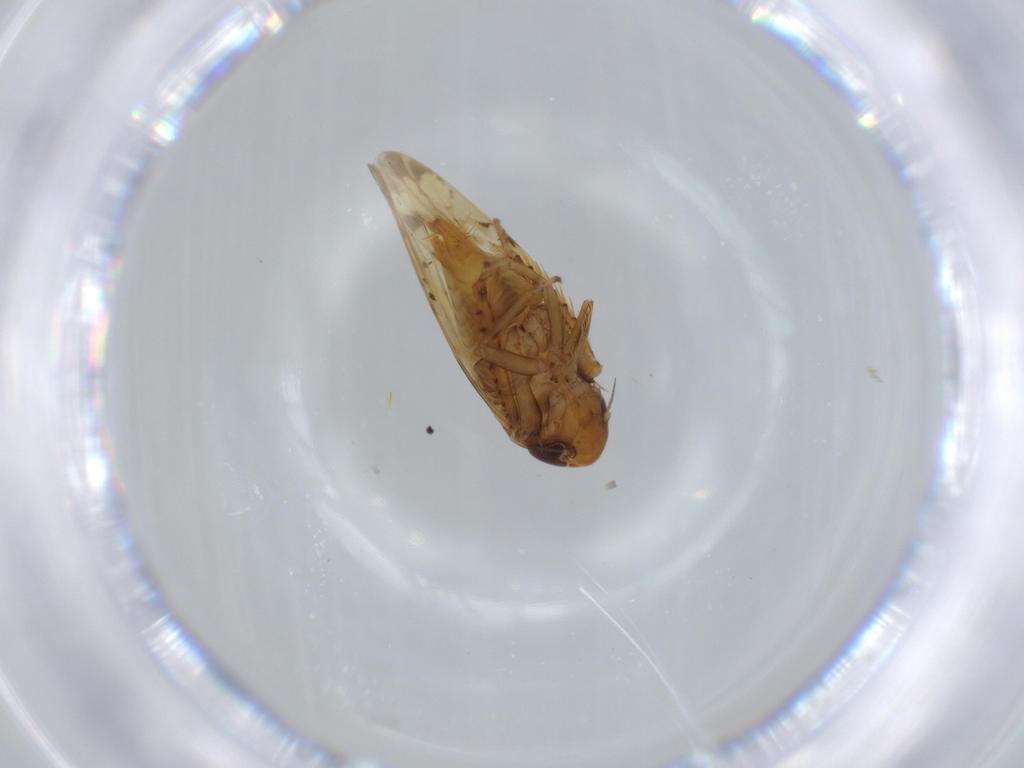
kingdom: Animalia
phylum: Arthropoda
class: Insecta
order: Hemiptera
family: Cicadellidae
